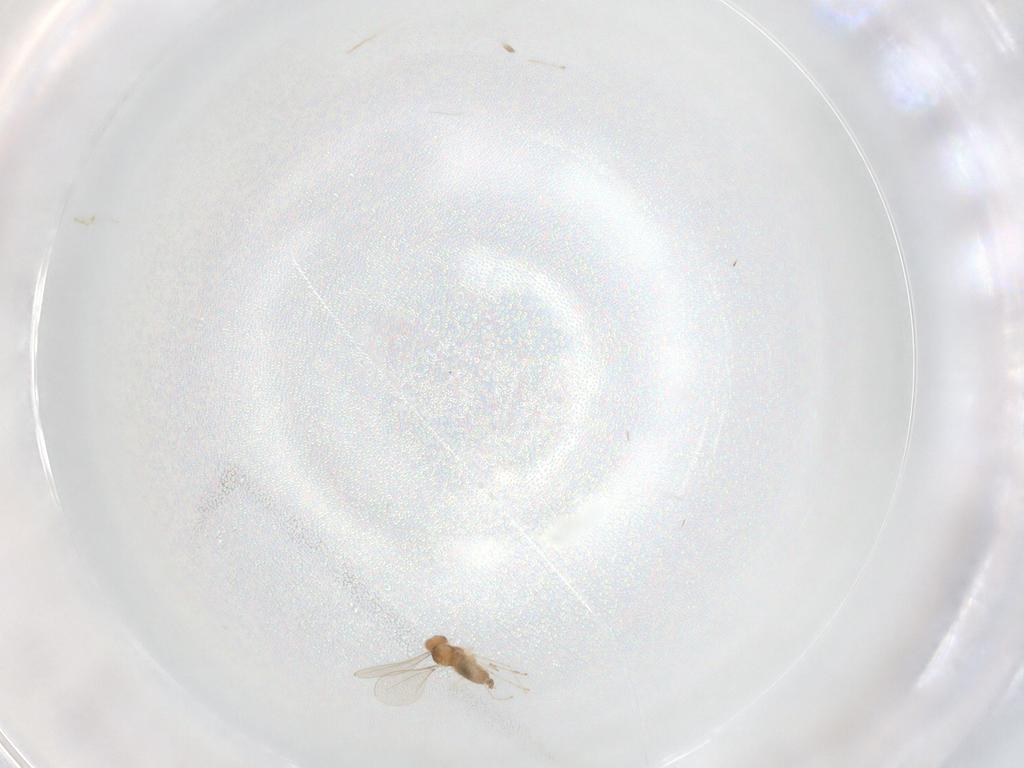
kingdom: Animalia
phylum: Arthropoda
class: Insecta
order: Diptera
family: Cecidomyiidae
